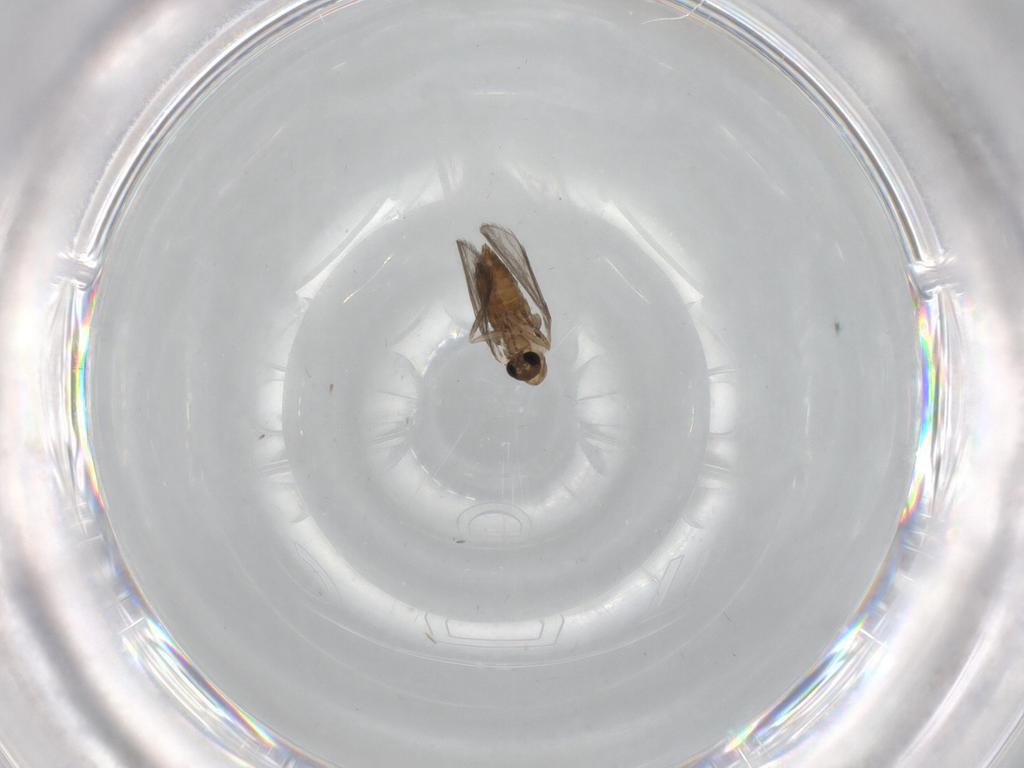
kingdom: Animalia
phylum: Arthropoda
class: Insecta
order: Diptera
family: Psychodidae
